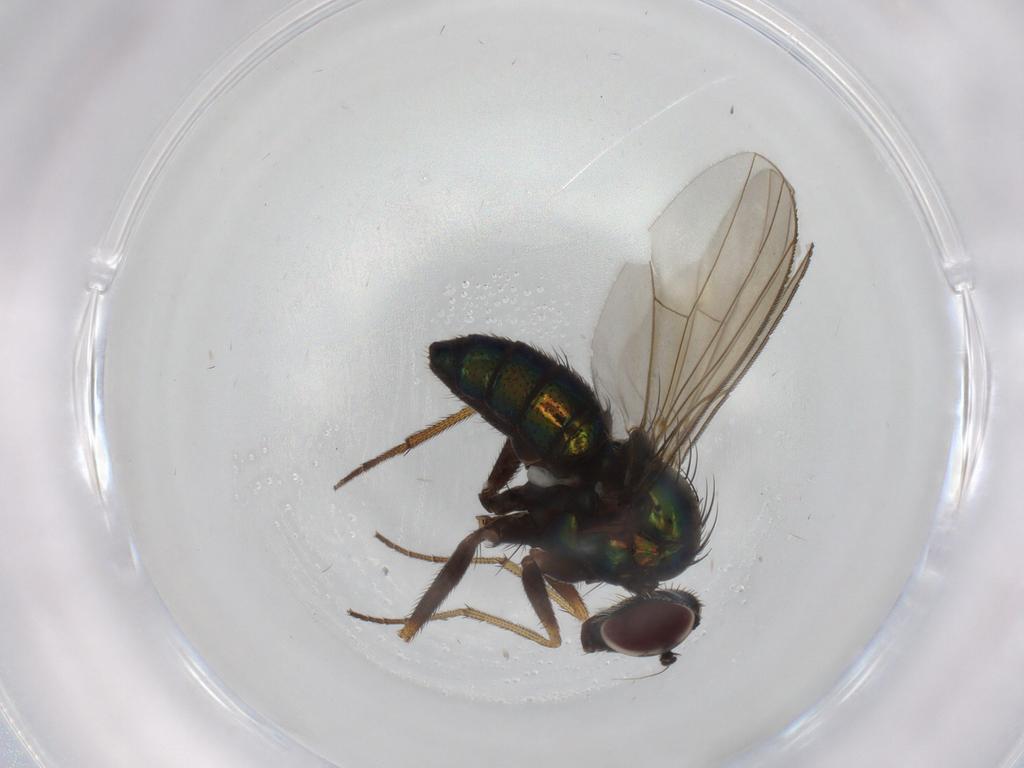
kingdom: Animalia
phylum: Arthropoda
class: Insecta
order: Diptera
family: Dolichopodidae
